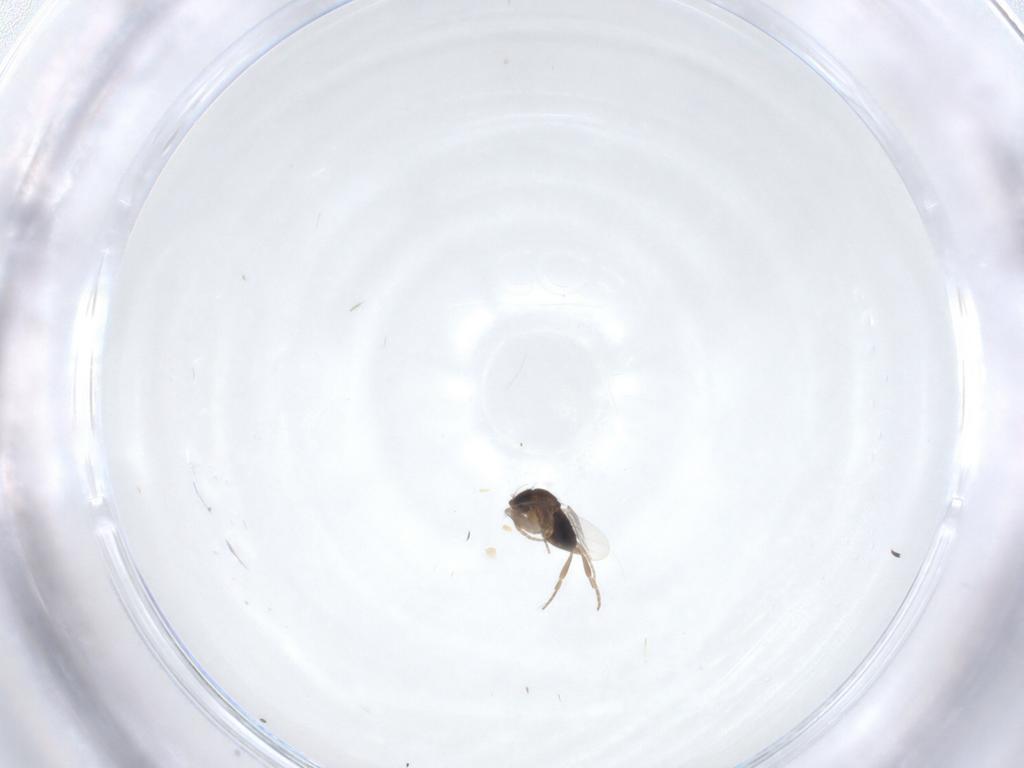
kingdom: Animalia
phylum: Arthropoda
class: Insecta
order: Diptera
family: Phoridae
